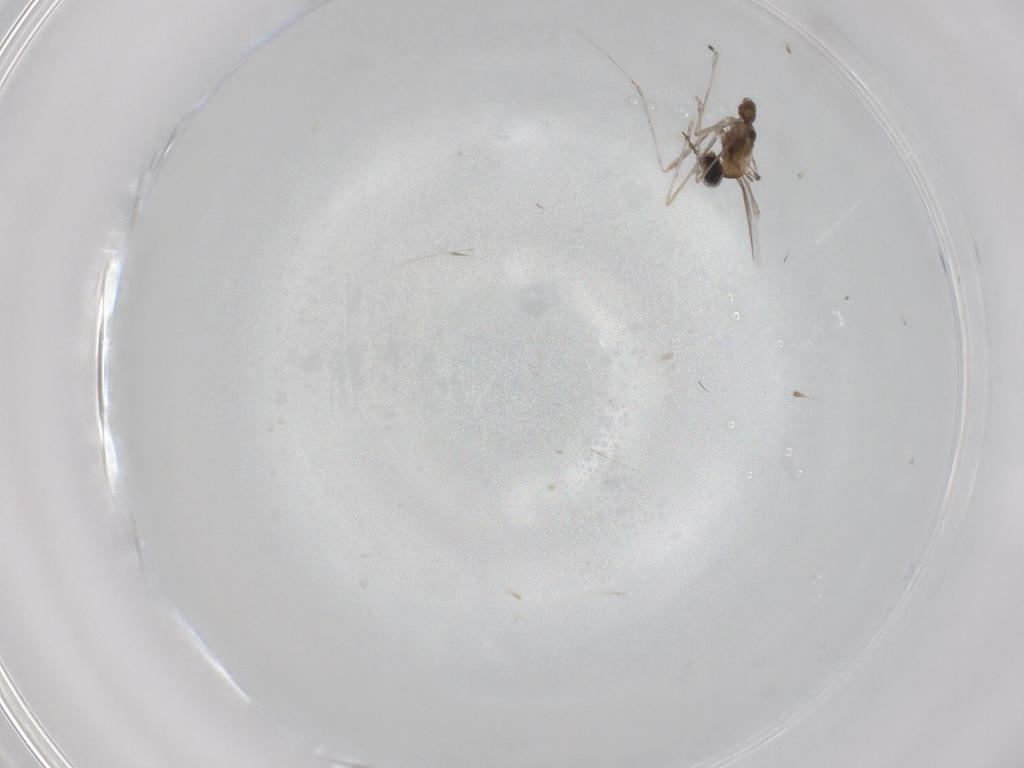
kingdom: Animalia
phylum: Arthropoda
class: Insecta
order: Diptera
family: Cecidomyiidae
